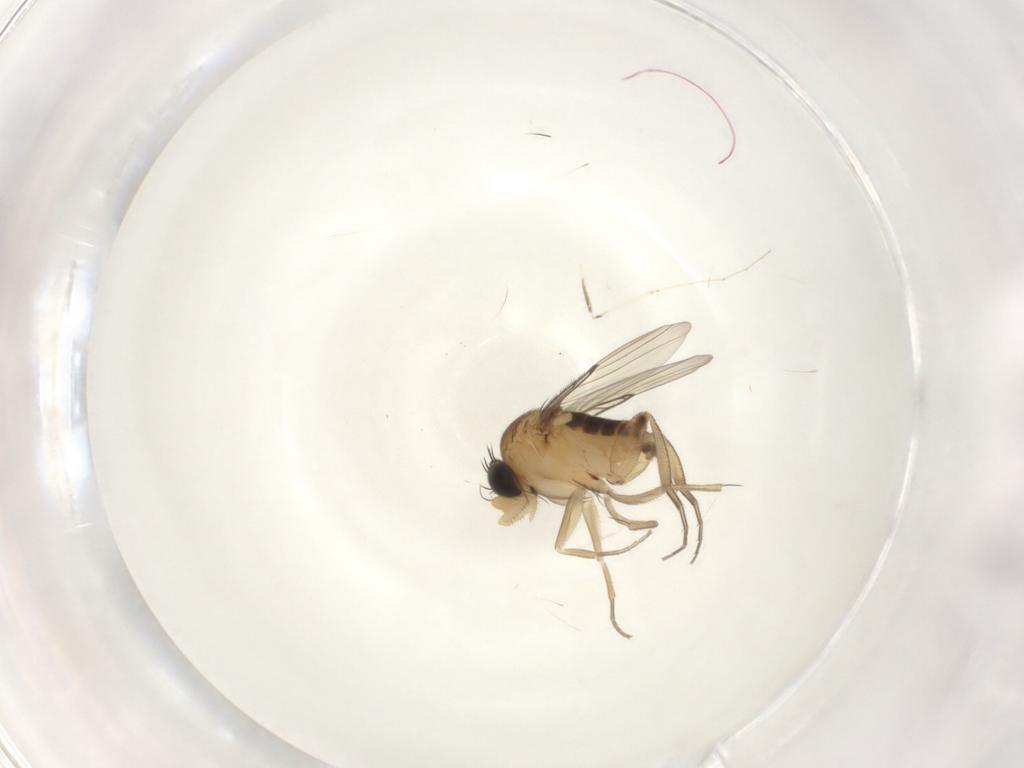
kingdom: Animalia
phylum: Arthropoda
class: Insecta
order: Diptera
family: Phoridae
